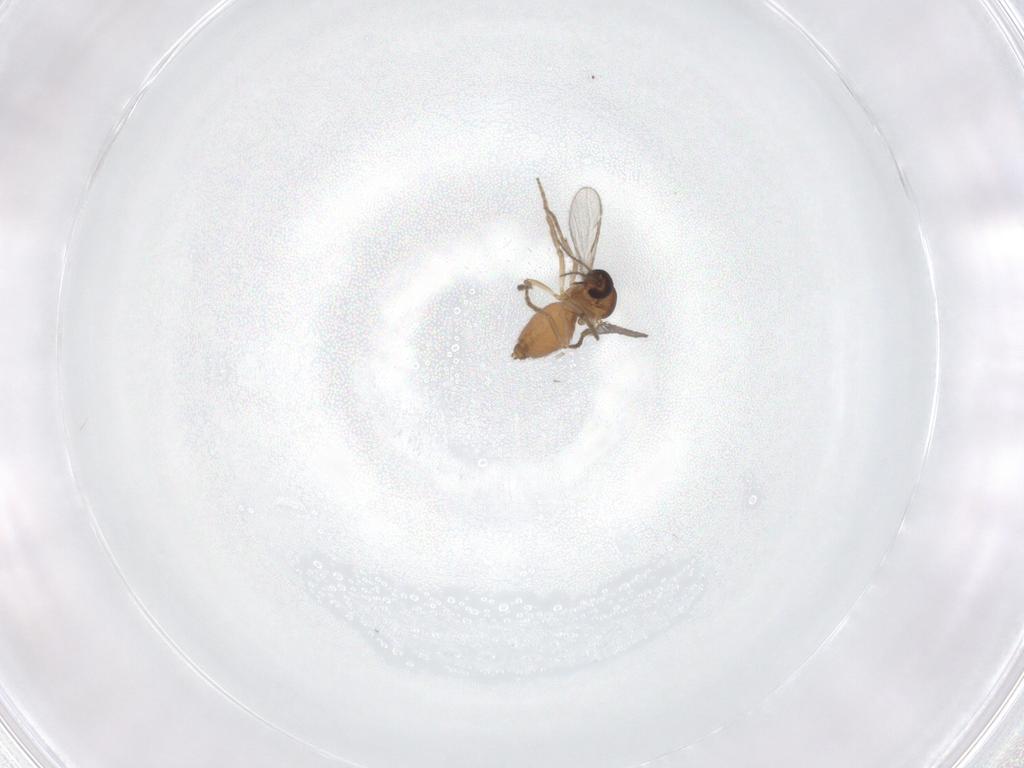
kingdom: Animalia
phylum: Arthropoda
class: Insecta
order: Diptera
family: Ceratopogonidae
